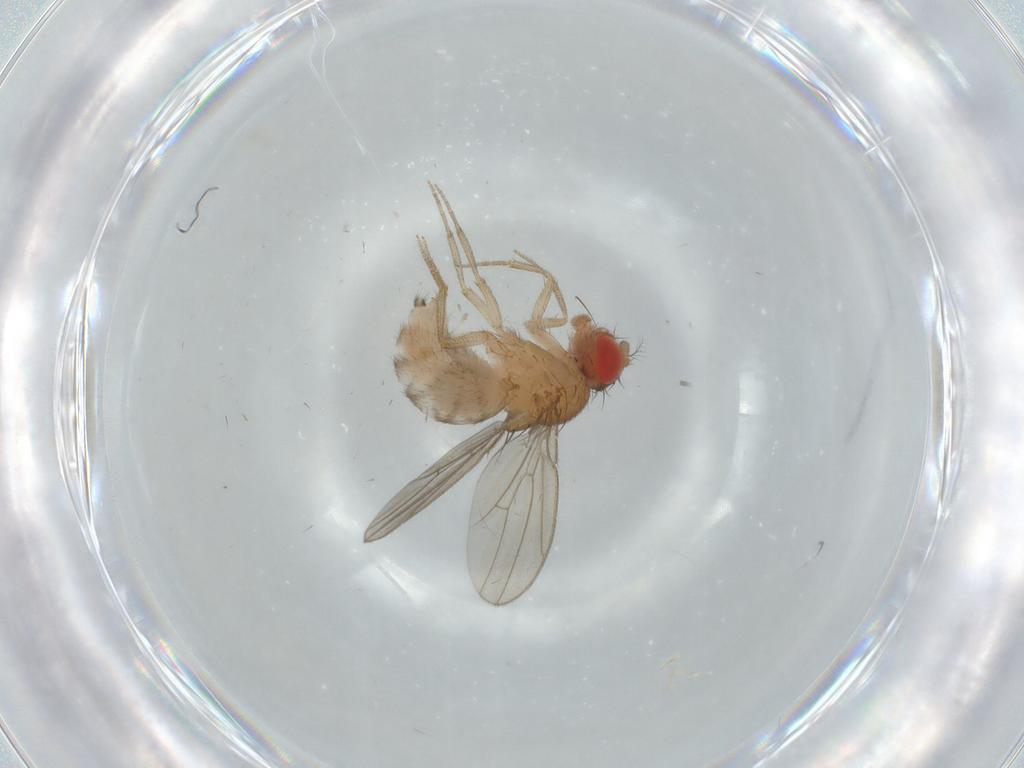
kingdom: Animalia
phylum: Arthropoda
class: Insecta
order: Diptera
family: Drosophilidae
